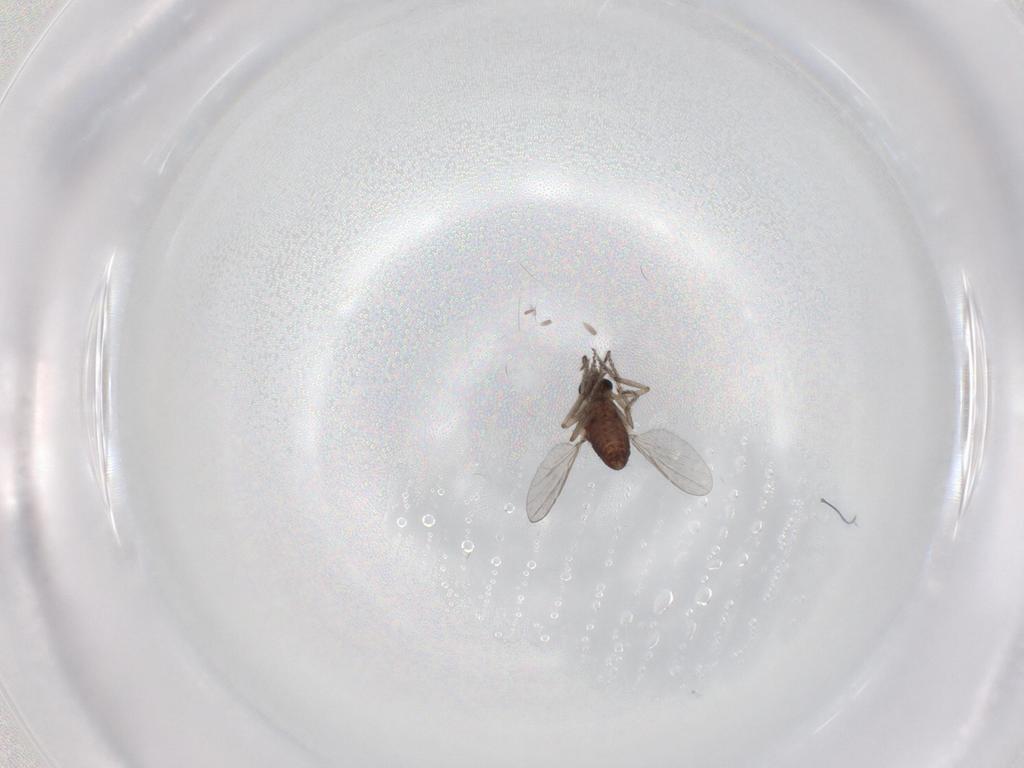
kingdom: Animalia
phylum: Arthropoda
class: Insecta
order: Diptera
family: Ceratopogonidae
